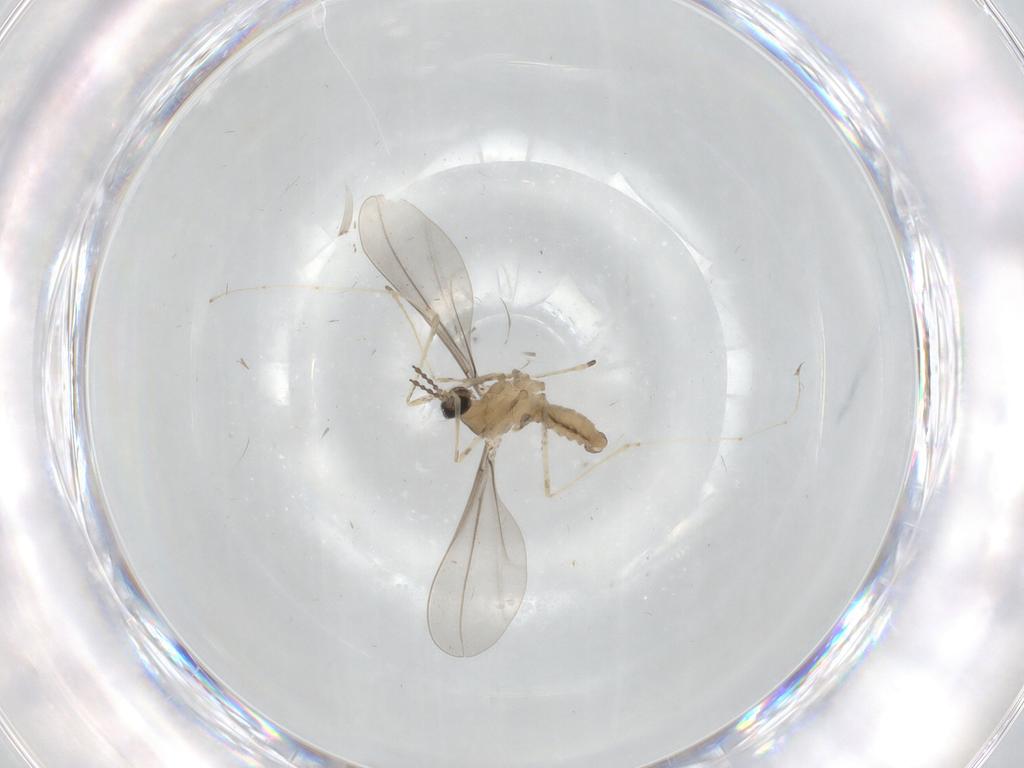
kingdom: Animalia
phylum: Arthropoda
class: Insecta
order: Diptera
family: Cecidomyiidae
